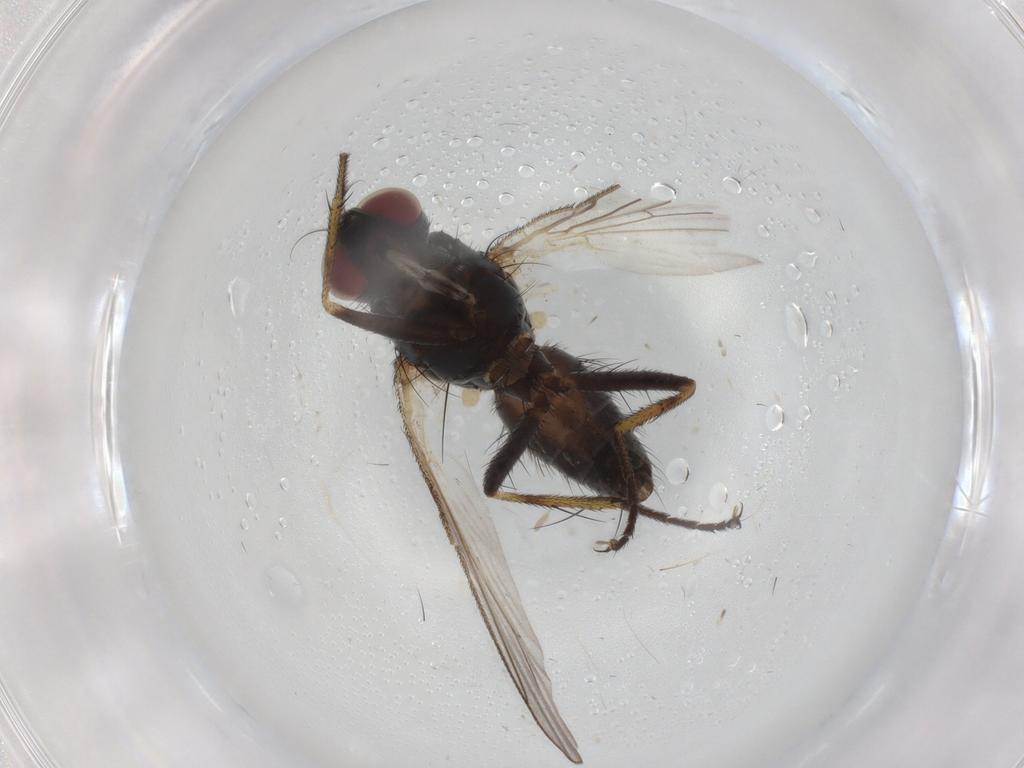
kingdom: Animalia
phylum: Arthropoda
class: Insecta
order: Diptera
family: Muscidae
